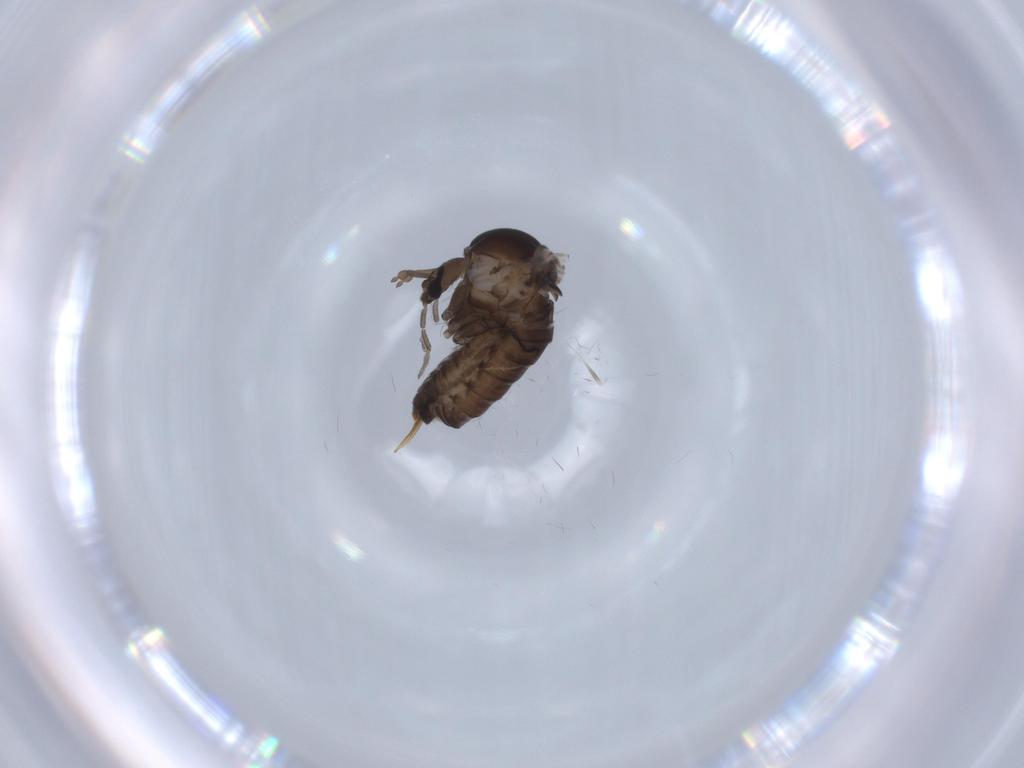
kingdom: Animalia
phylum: Arthropoda
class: Insecta
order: Diptera
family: Psychodidae
